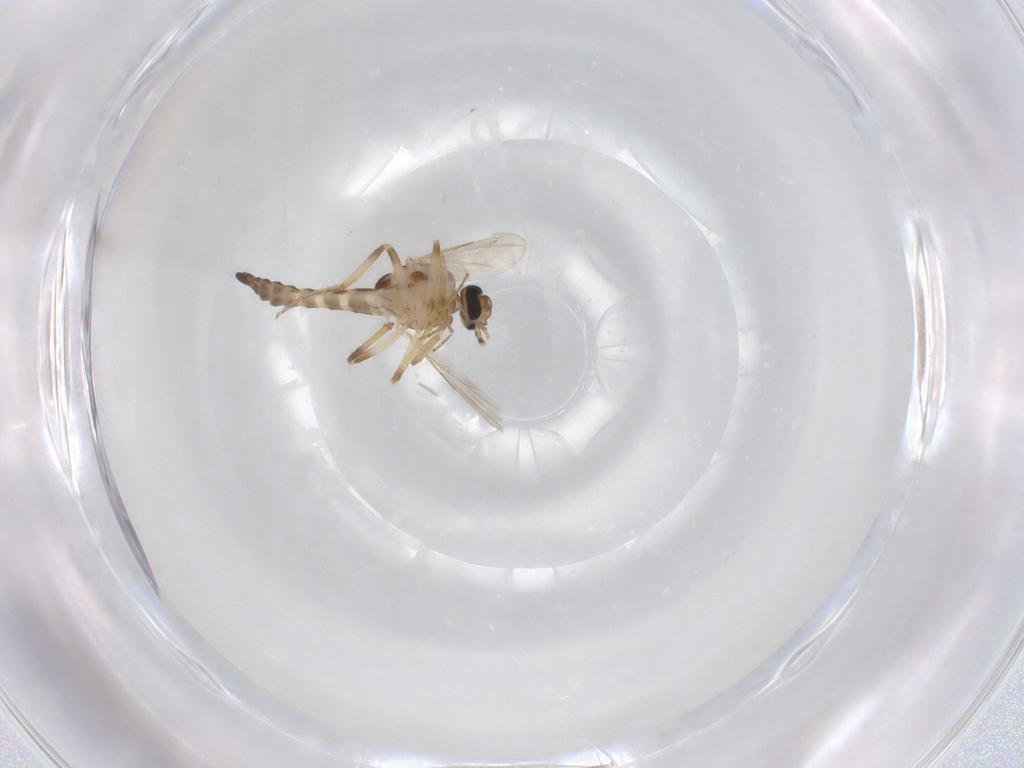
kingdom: Animalia
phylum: Arthropoda
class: Insecta
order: Diptera
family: Ceratopogonidae
